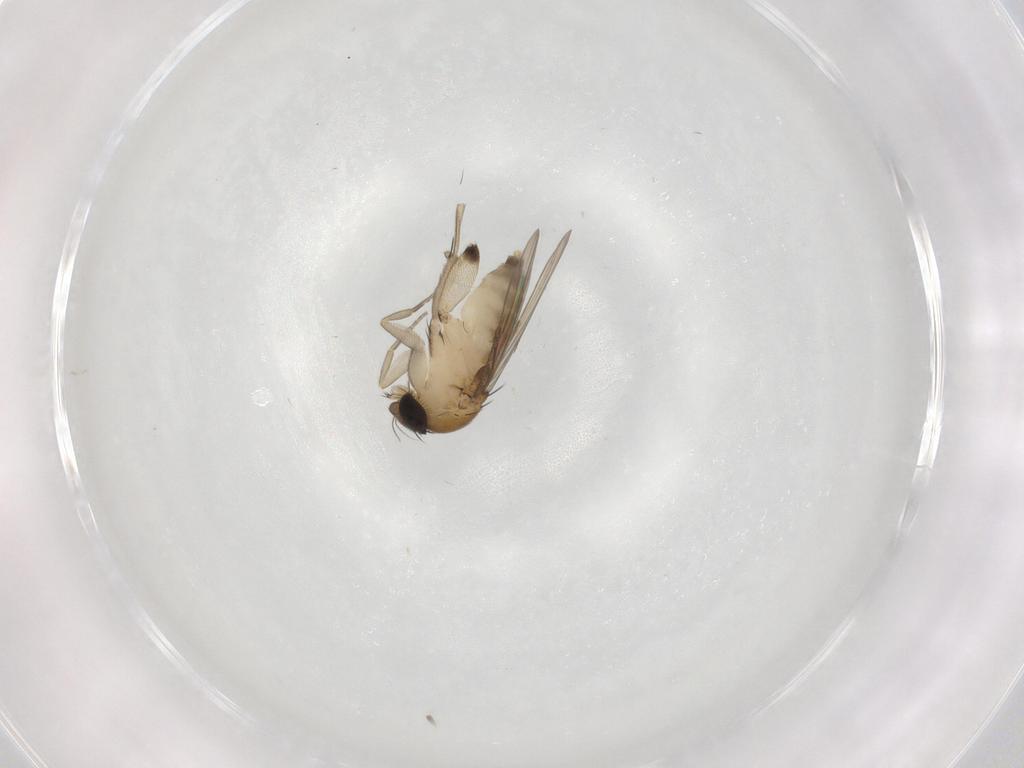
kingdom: Animalia
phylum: Arthropoda
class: Insecta
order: Diptera
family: Phoridae
